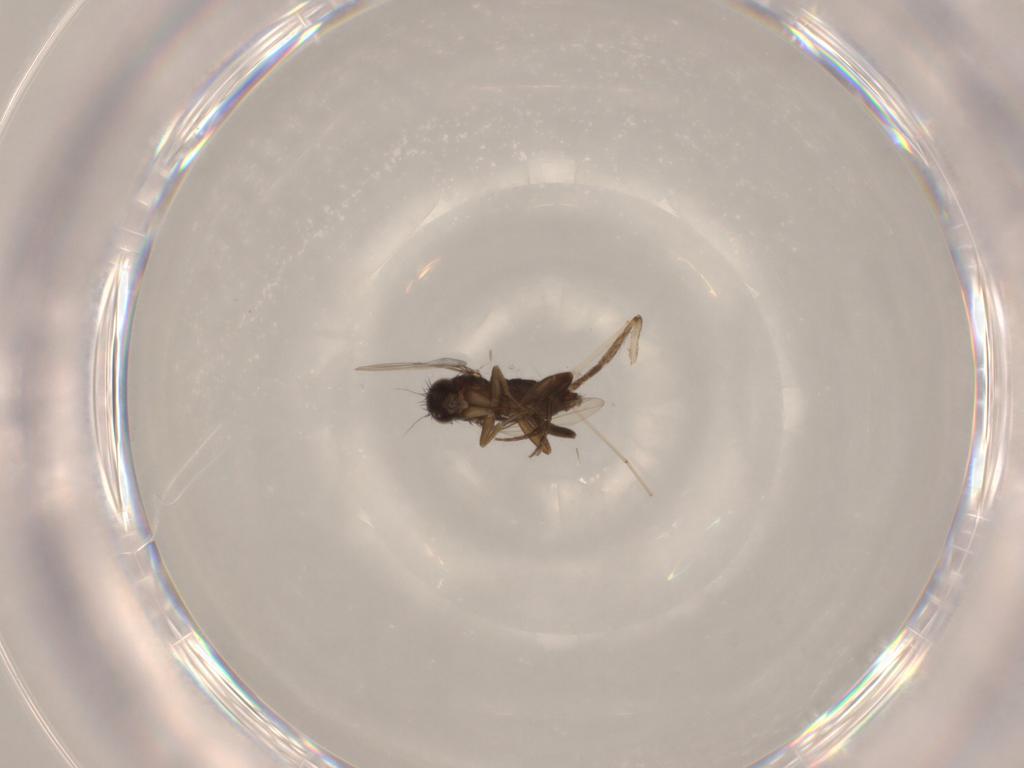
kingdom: Animalia
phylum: Arthropoda
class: Insecta
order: Diptera
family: Phoridae
